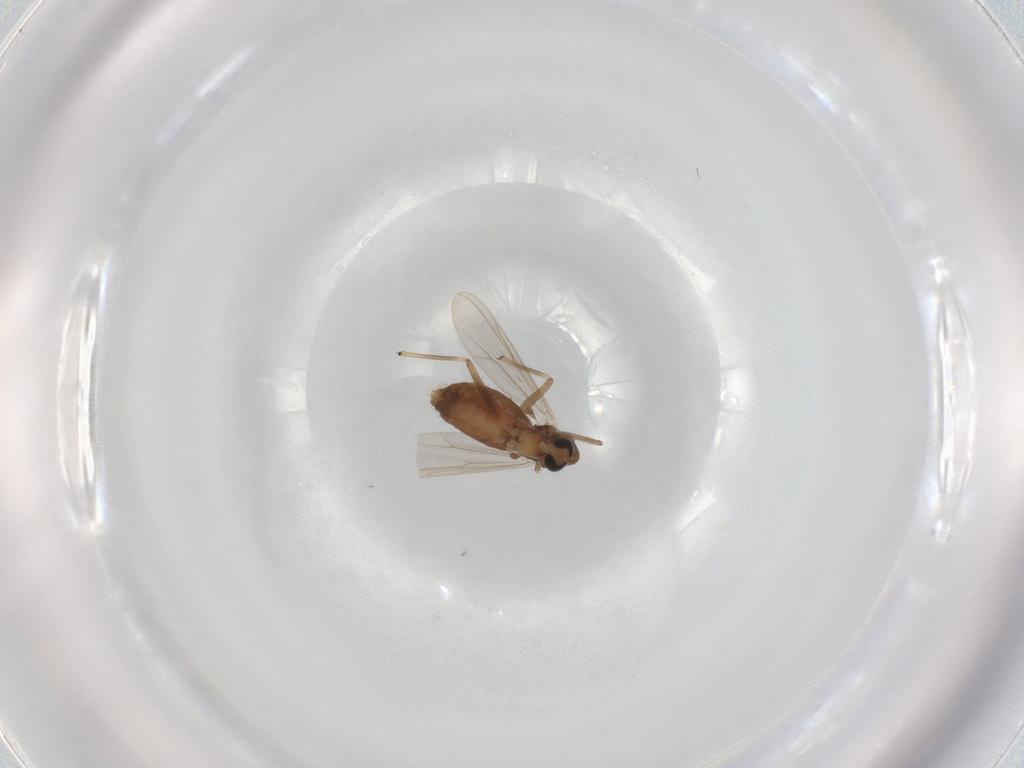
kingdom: Animalia
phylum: Arthropoda
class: Insecta
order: Diptera
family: Chironomidae
